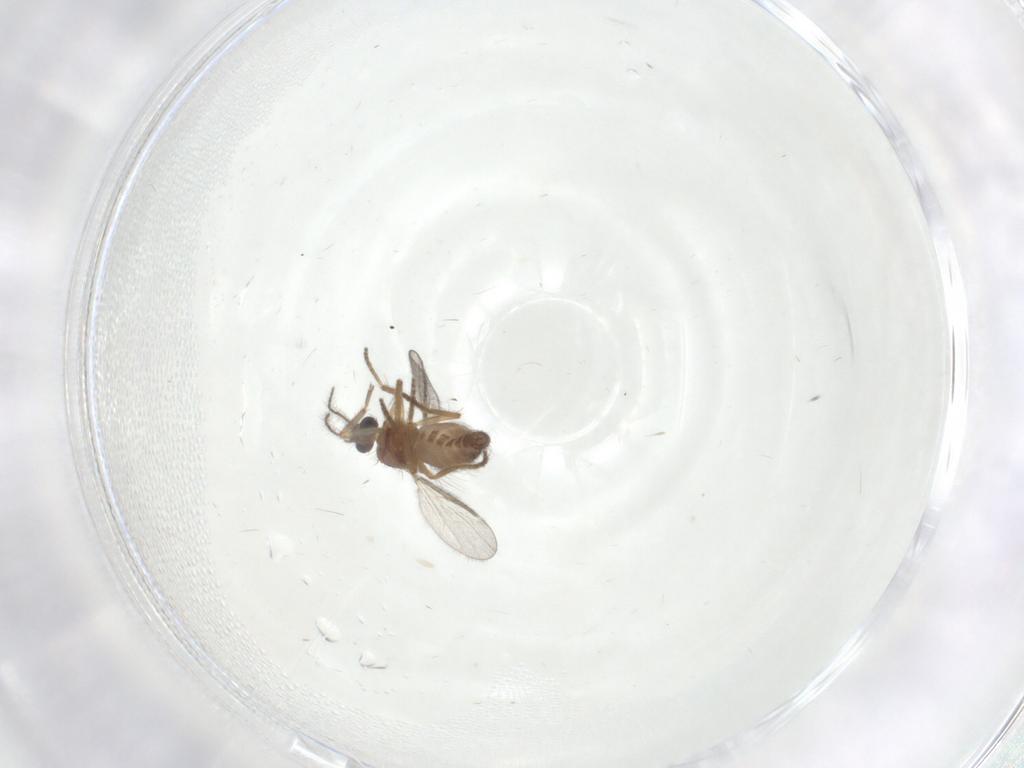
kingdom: Animalia
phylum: Arthropoda
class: Insecta
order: Diptera
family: Ceratopogonidae
